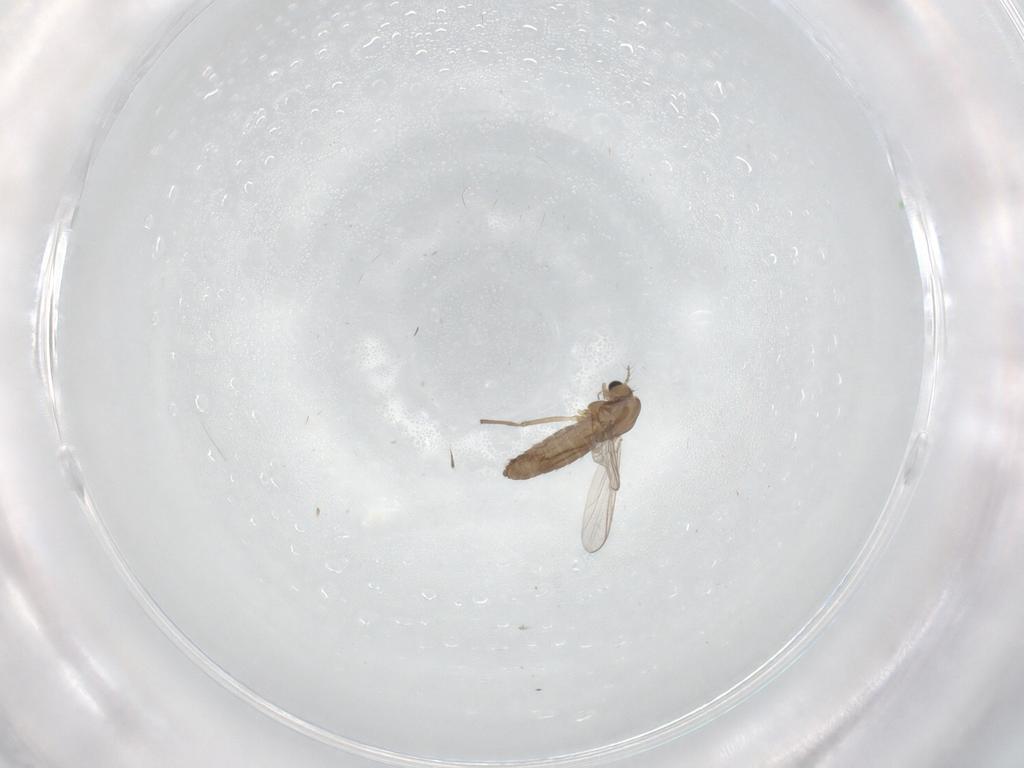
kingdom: Animalia
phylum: Arthropoda
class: Insecta
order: Diptera
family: Chironomidae
